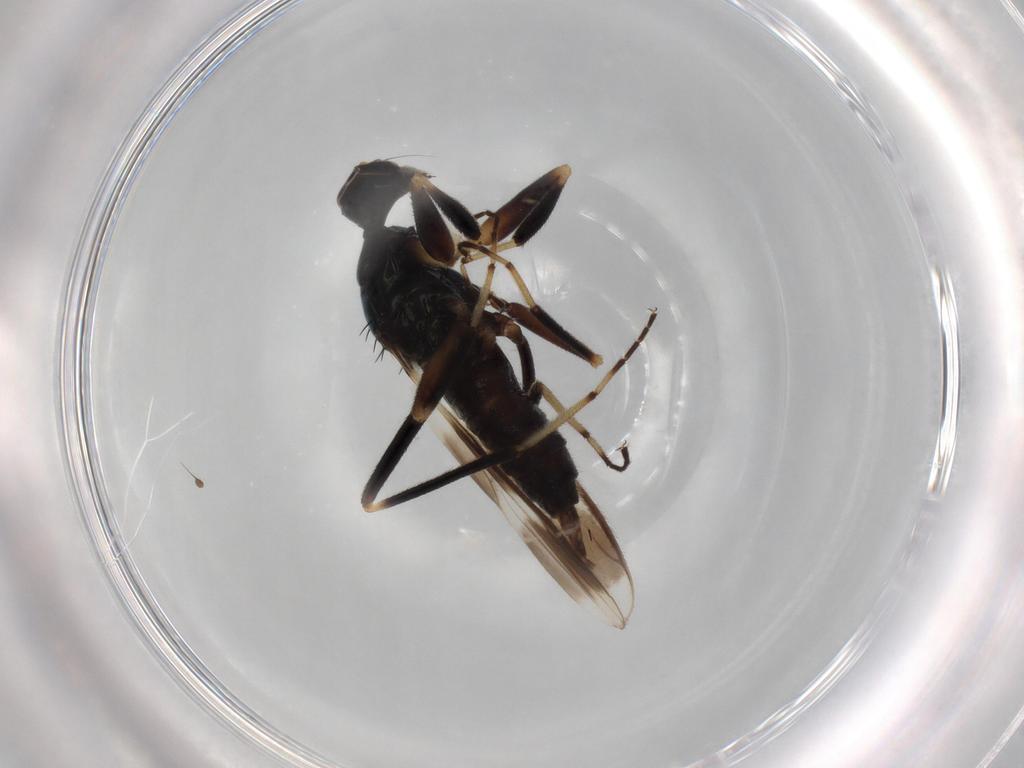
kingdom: Animalia
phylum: Arthropoda
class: Insecta
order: Diptera
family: Hybotidae
